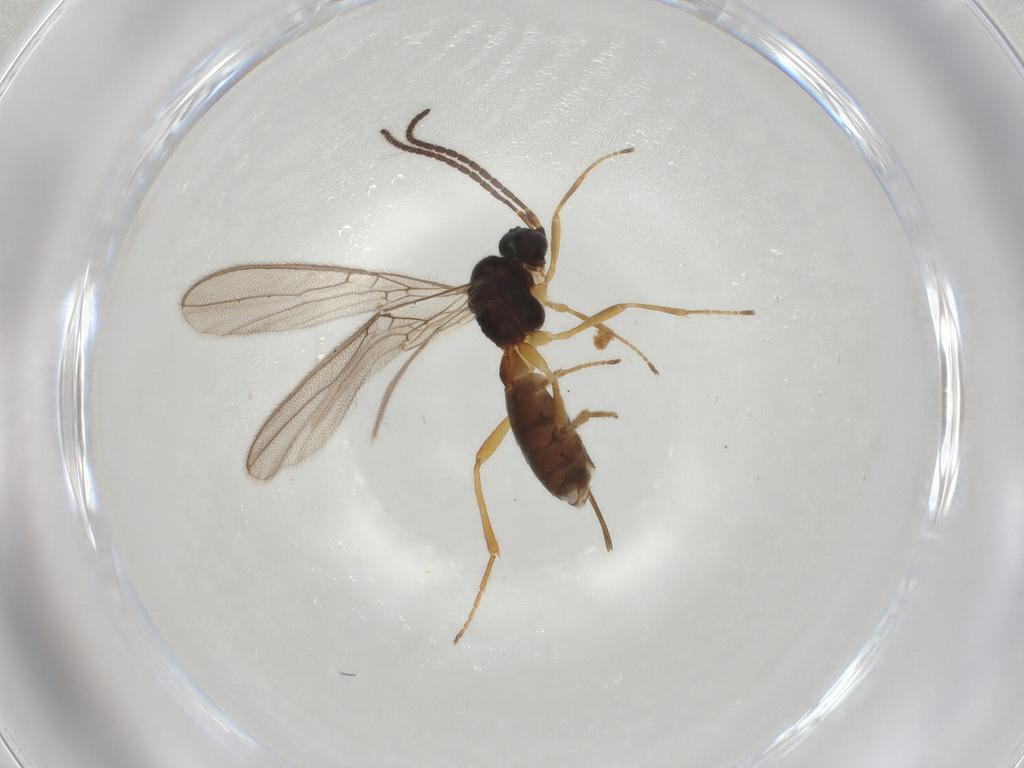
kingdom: Animalia
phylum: Arthropoda
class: Insecta
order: Hymenoptera
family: Braconidae
